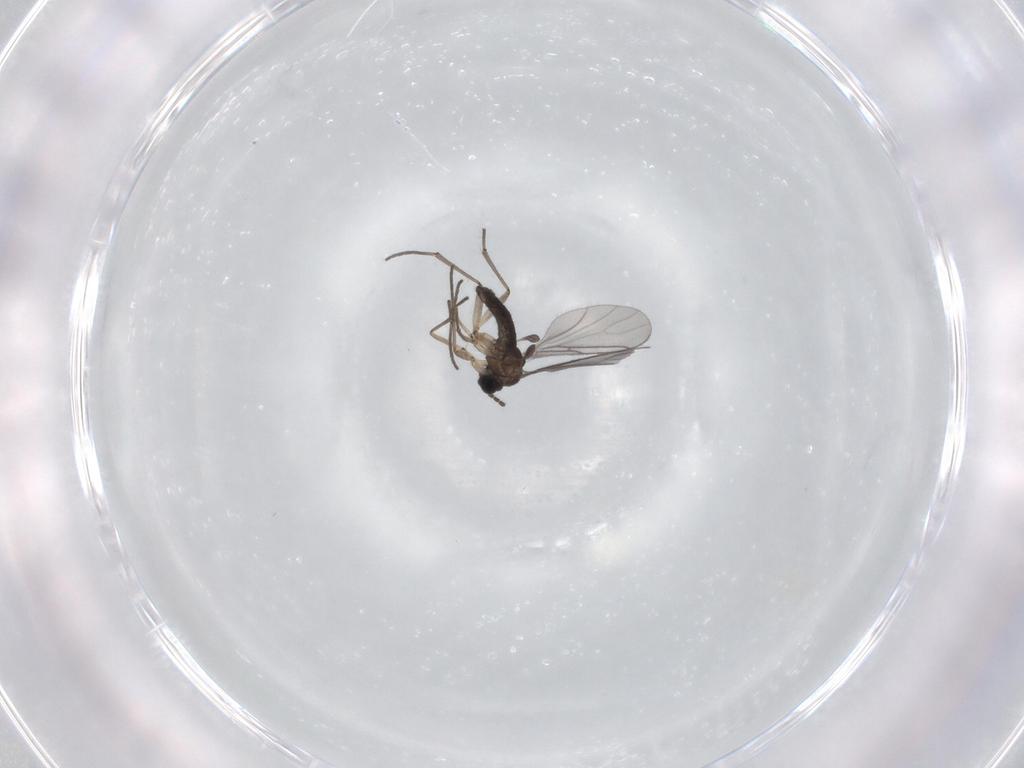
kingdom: Animalia
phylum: Arthropoda
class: Insecta
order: Diptera
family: Sciaridae
